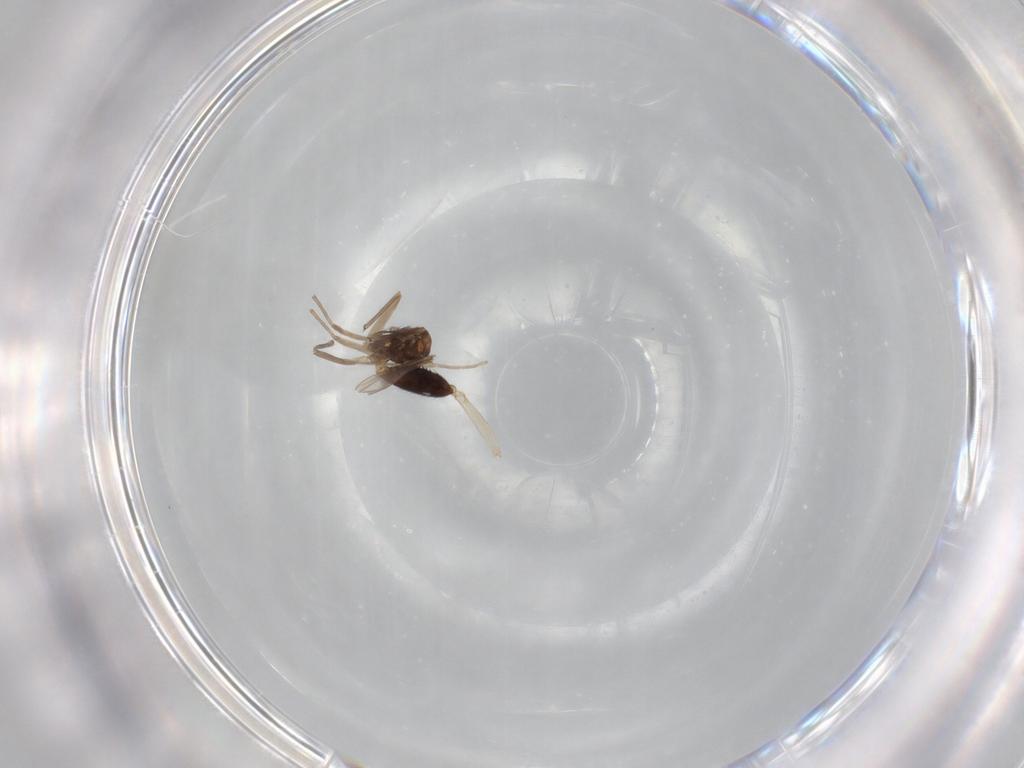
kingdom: Animalia
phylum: Arthropoda
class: Insecta
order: Diptera
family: Empididae
